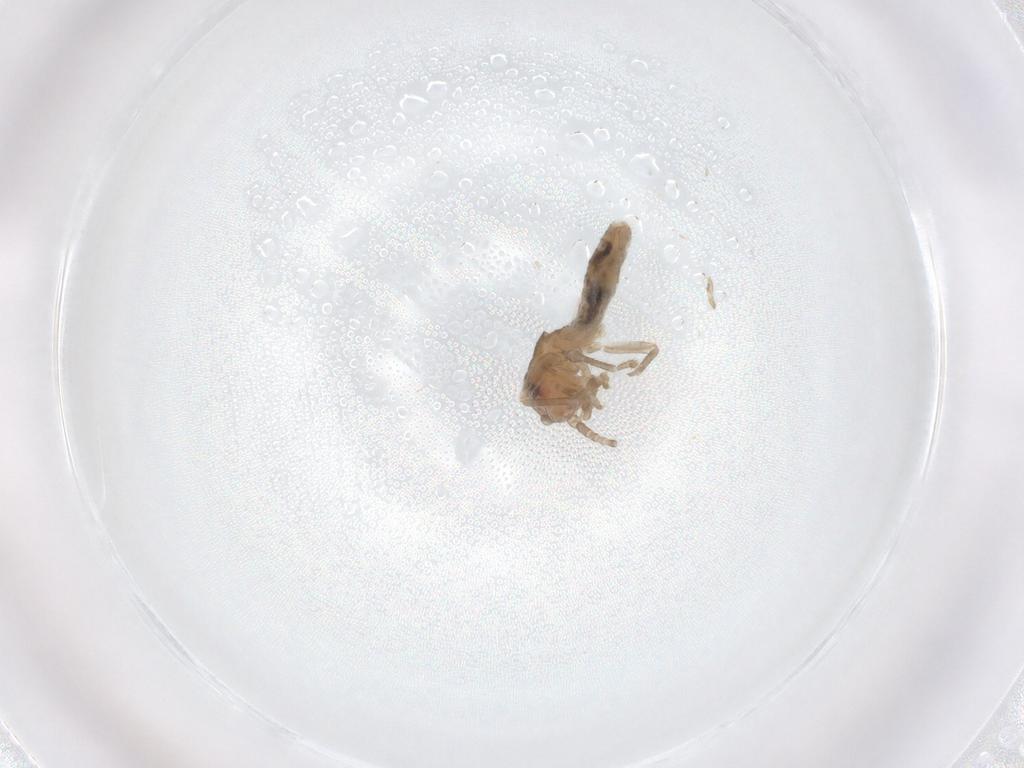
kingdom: Animalia
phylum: Arthropoda
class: Insecta
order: Orthoptera
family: Mogoplistidae
